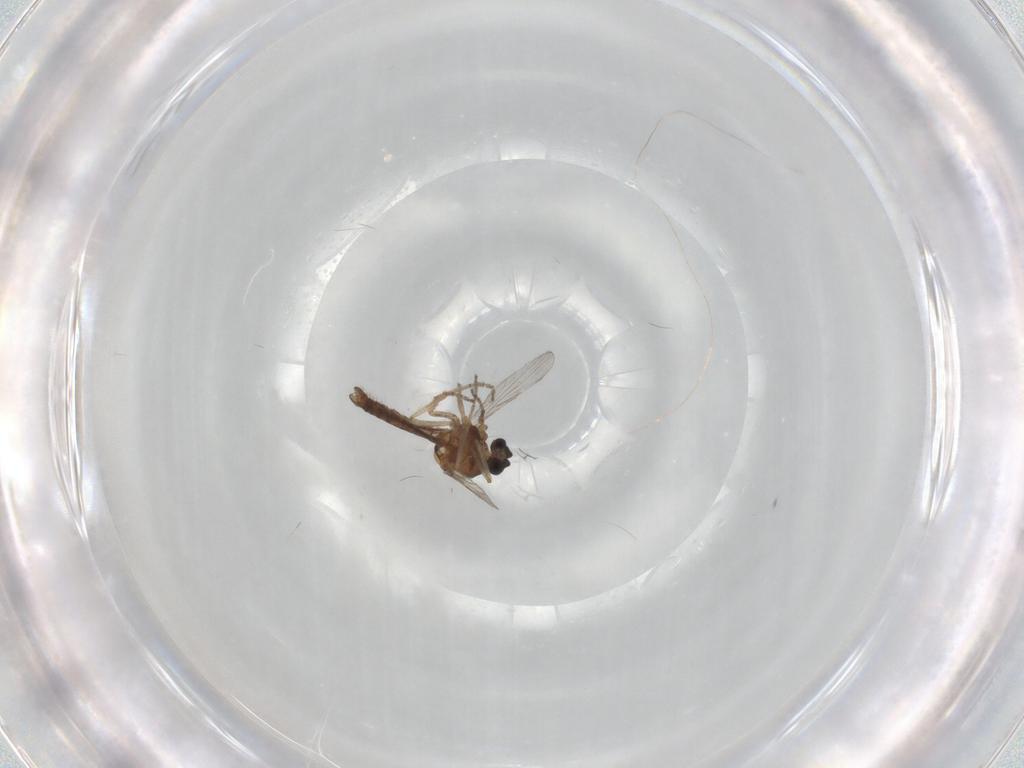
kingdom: Animalia
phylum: Arthropoda
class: Insecta
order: Diptera
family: Ceratopogonidae
